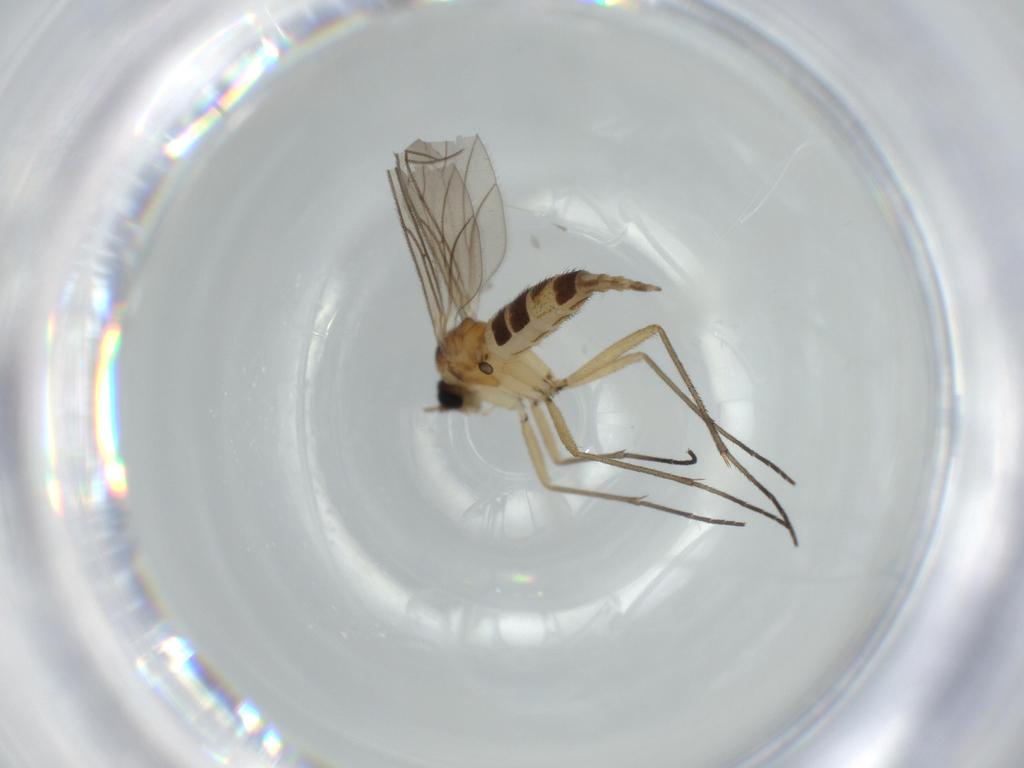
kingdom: Animalia
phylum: Arthropoda
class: Insecta
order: Diptera
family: Sciaridae
